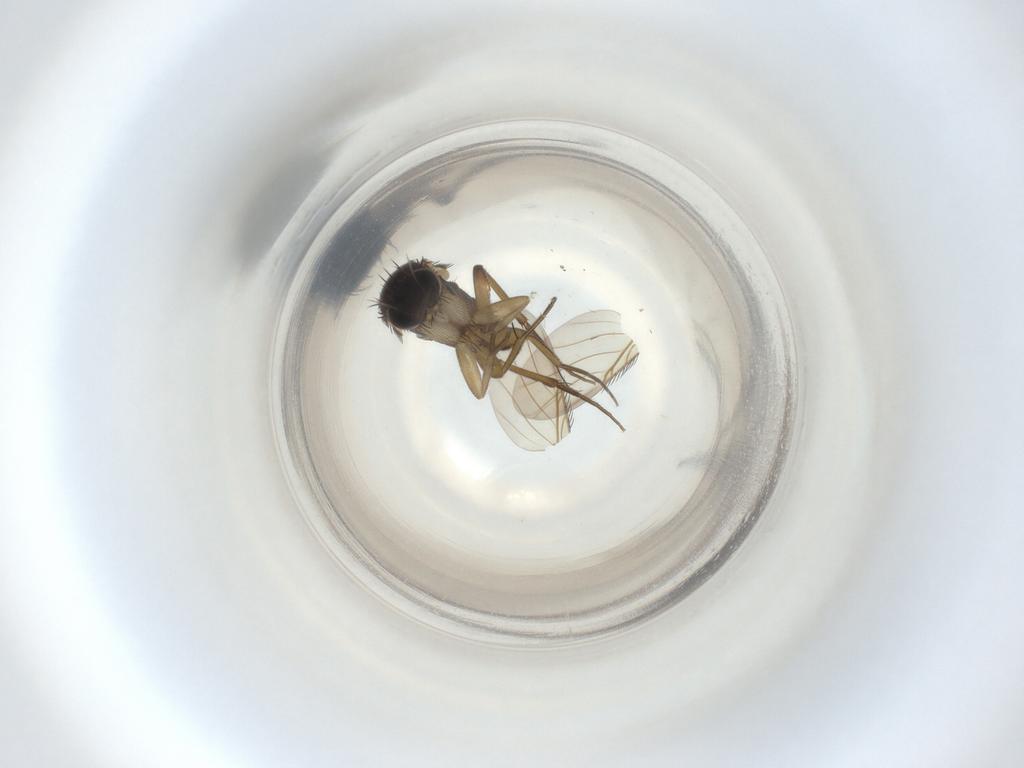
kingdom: Animalia
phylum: Arthropoda
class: Insecta
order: Diptera
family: Phoridae
